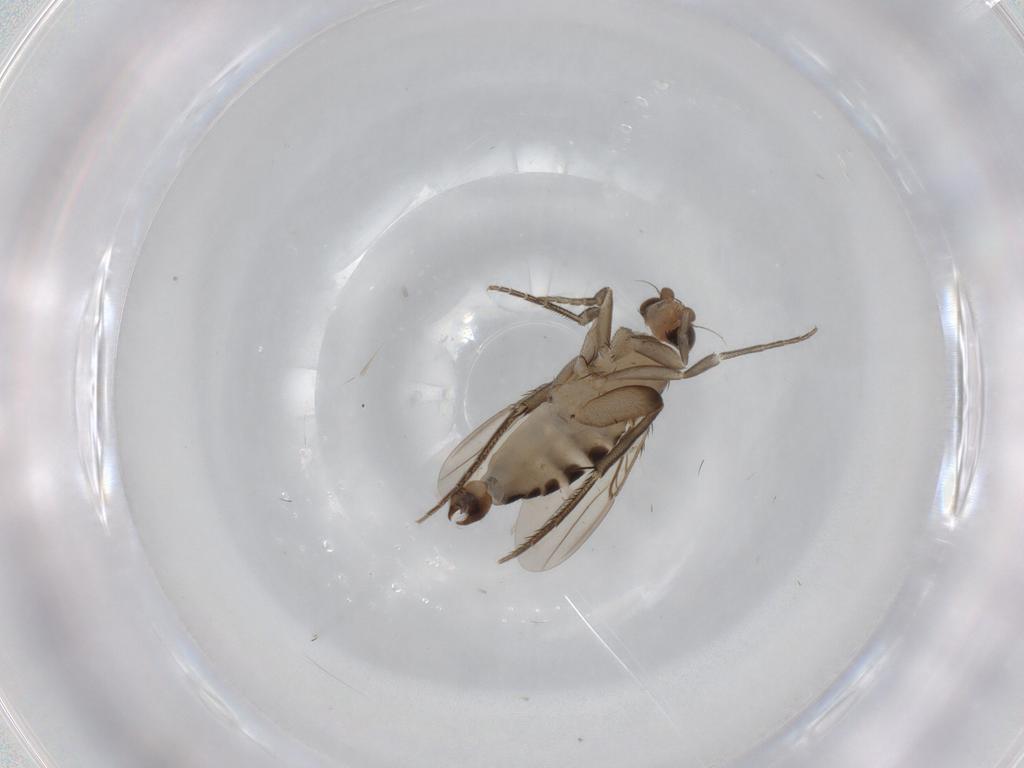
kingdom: Animalia
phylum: Arthropoda
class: Insecta
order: Diptera
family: Phoridae
